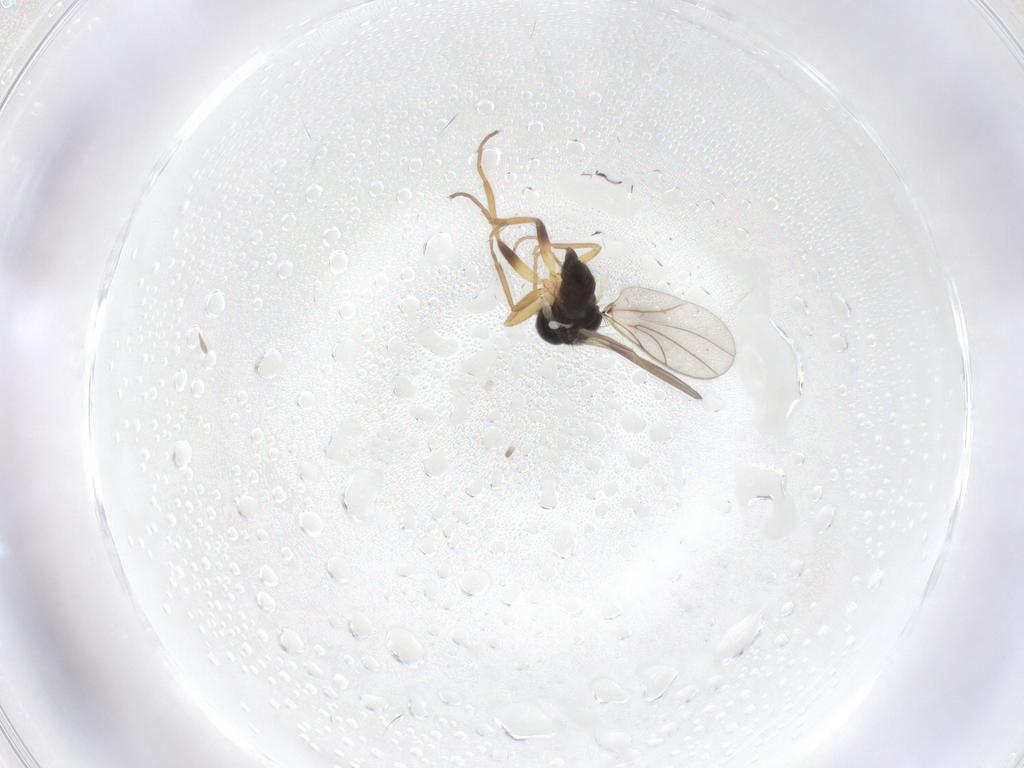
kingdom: Animalia
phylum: Arthropoda
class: Insecta
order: Diptera
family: Hybotidae
